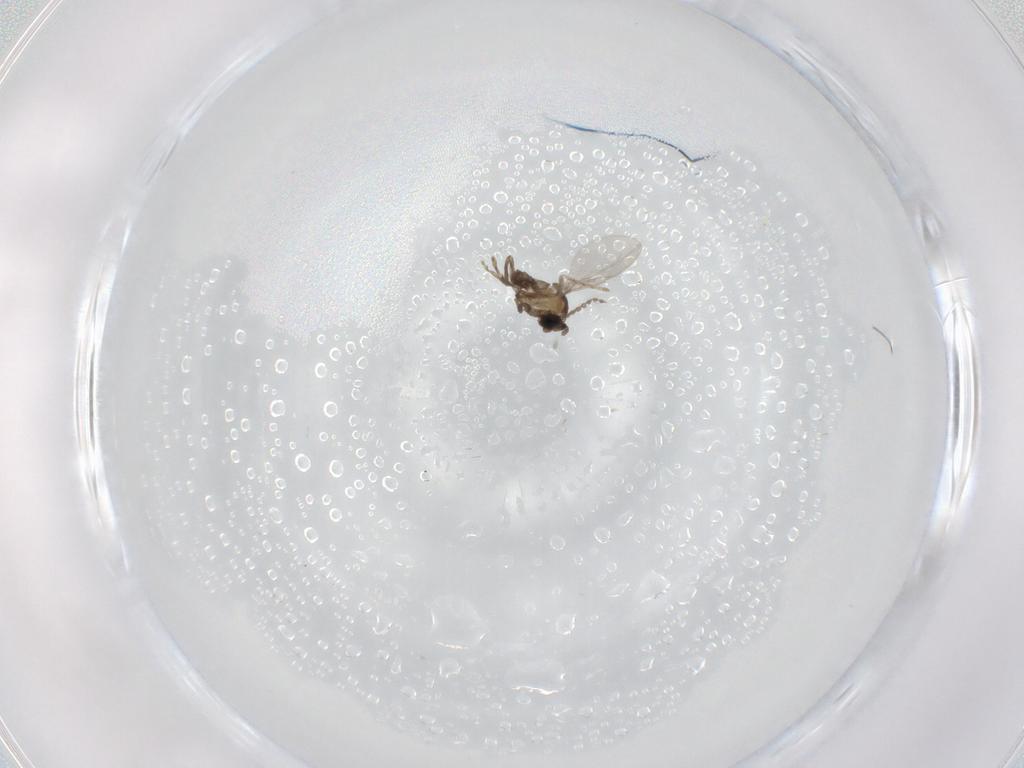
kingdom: Animalia
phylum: Arthropoda
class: Insecta
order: Diptera
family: Cecidomyiidae
